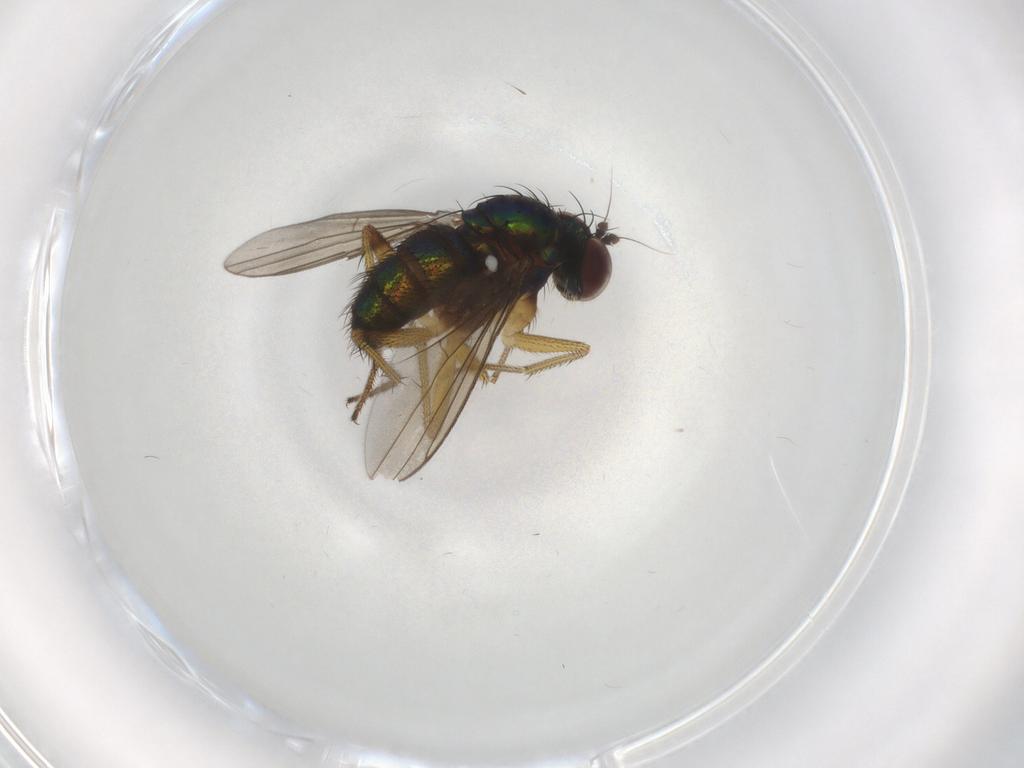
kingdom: Animalia
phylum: Arthropoda
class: Insecta
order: Diptera
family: Dolichopodidae
